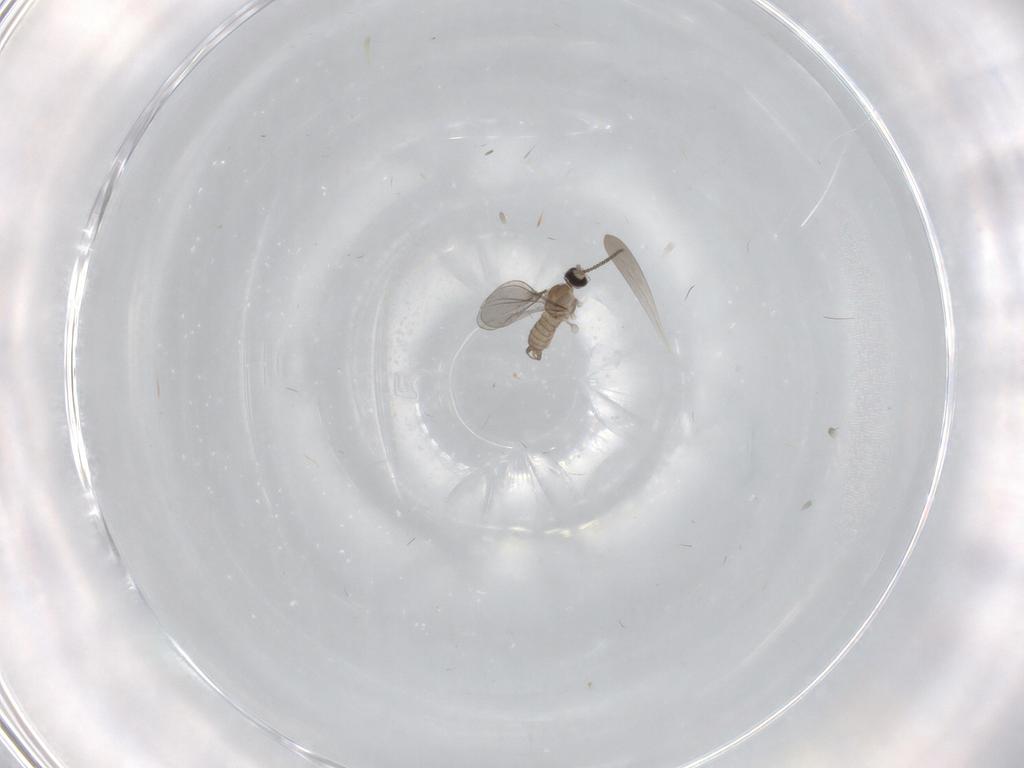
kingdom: Animalia
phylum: Arthropoda
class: Insecta
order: Diptera
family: Cecidomyiidae
